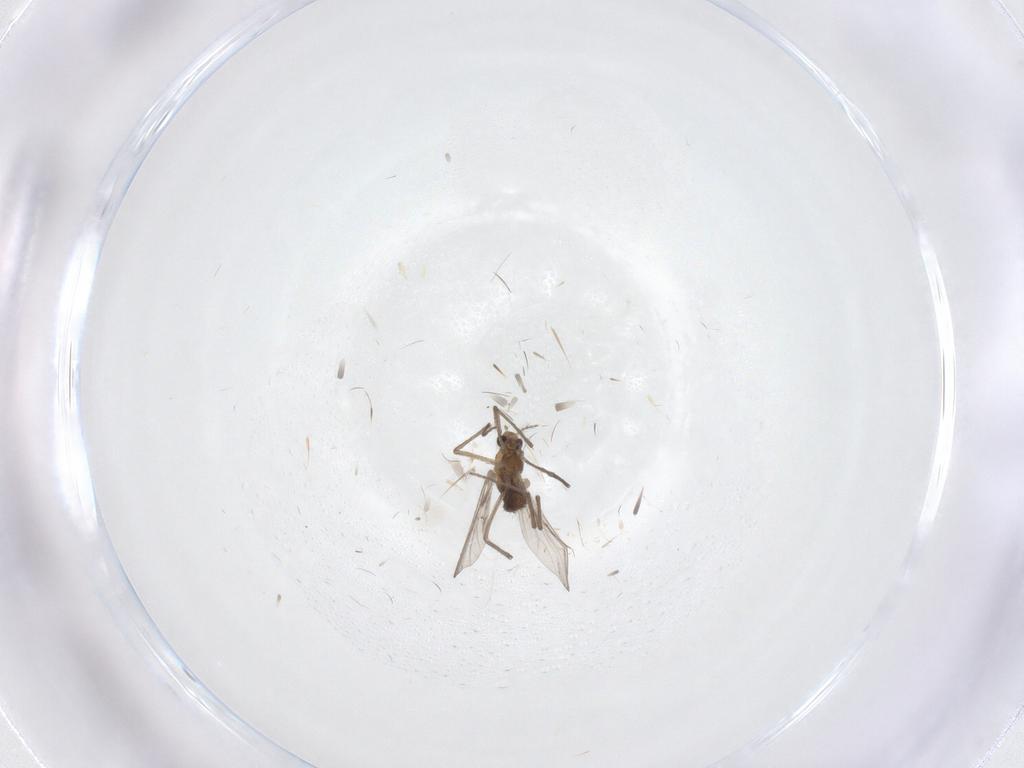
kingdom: Animalia
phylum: Arthropoda
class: Insecta
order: Diptera
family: Chironomidae
